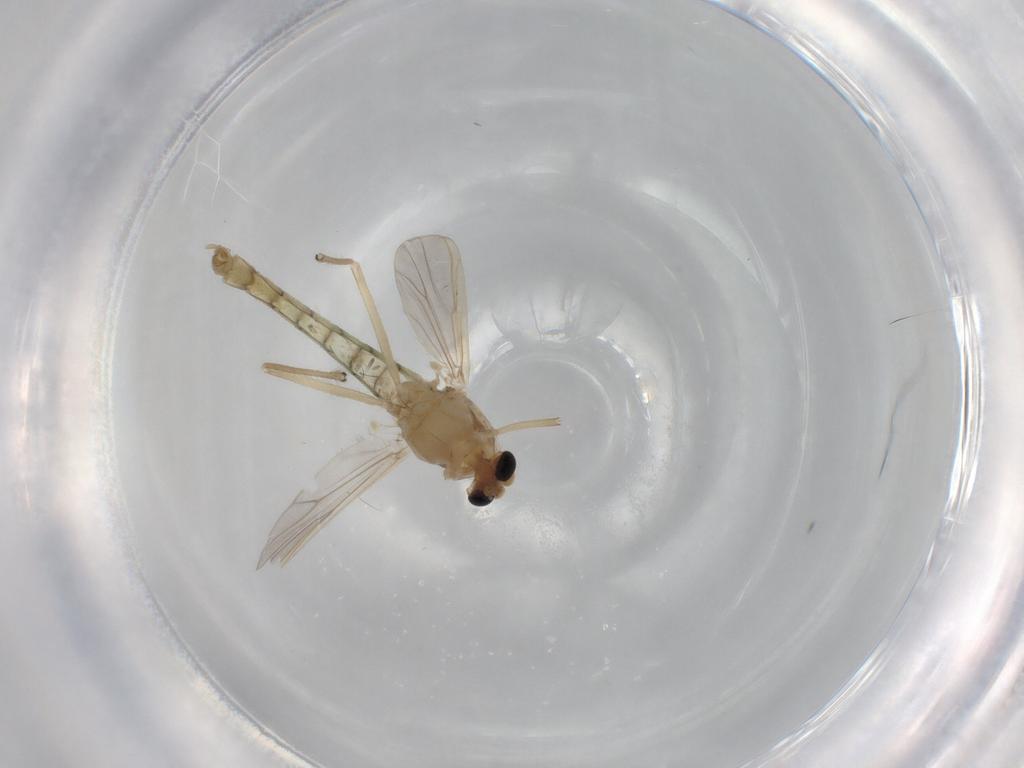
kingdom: Animalia
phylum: Arthropoda
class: Insecta
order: Diptera
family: Chironomidae
